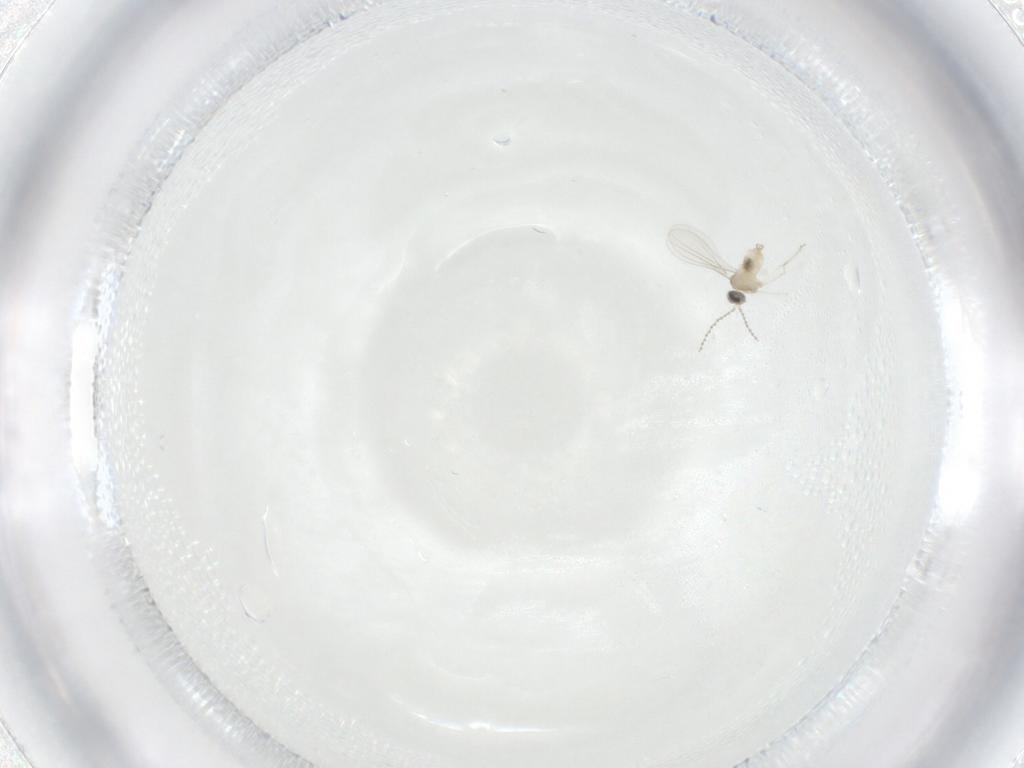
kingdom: Animalia
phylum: Arthropoda
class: Insecta
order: Diptera
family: Cecidomyiidae
